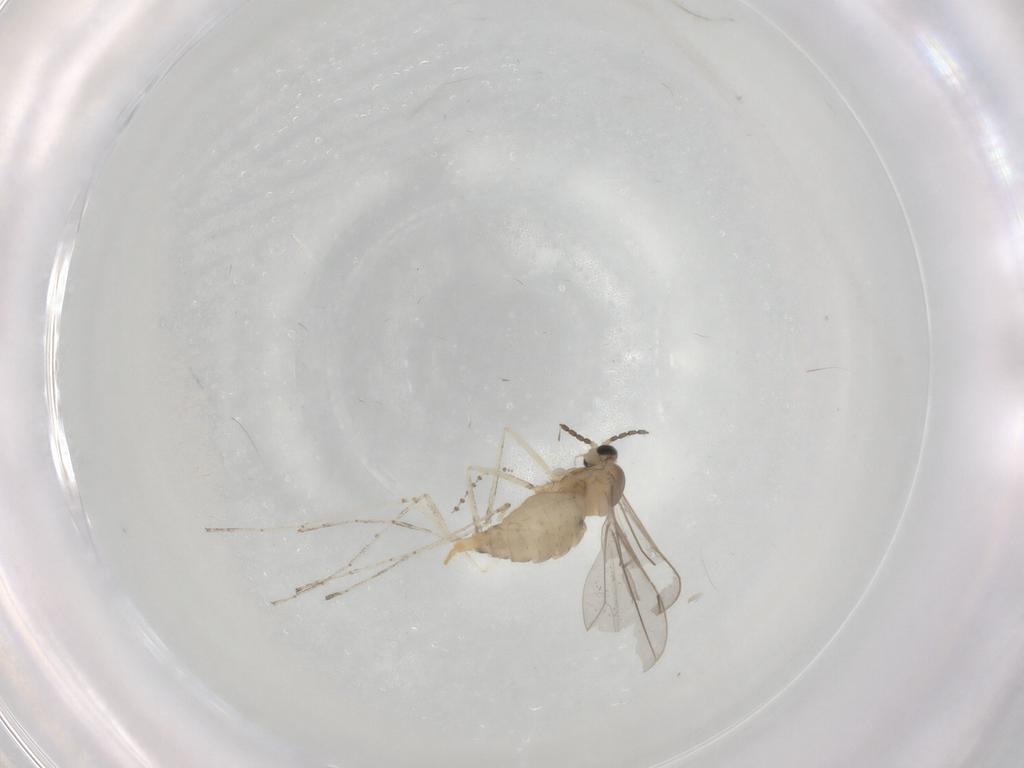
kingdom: Animalia
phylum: Arthropoda
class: Insecta
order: Diptera
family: Cecidomyiidae
